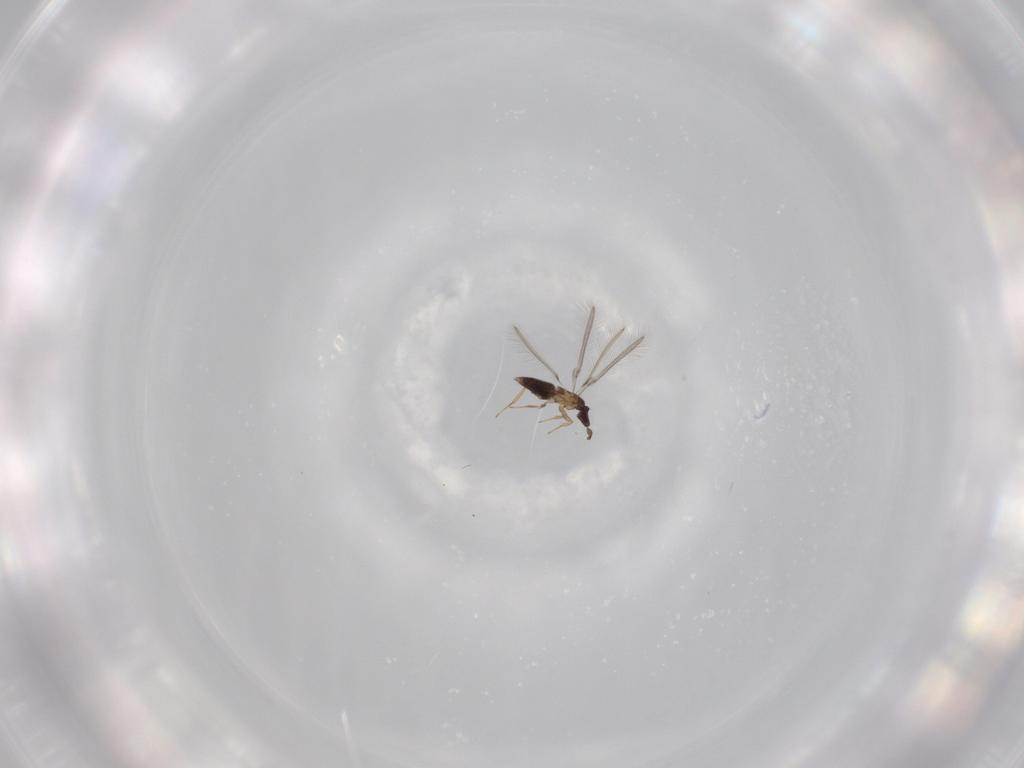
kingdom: Animalia
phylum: Arthropoda
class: Insecta
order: Hymenoptera
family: Mymaridae
